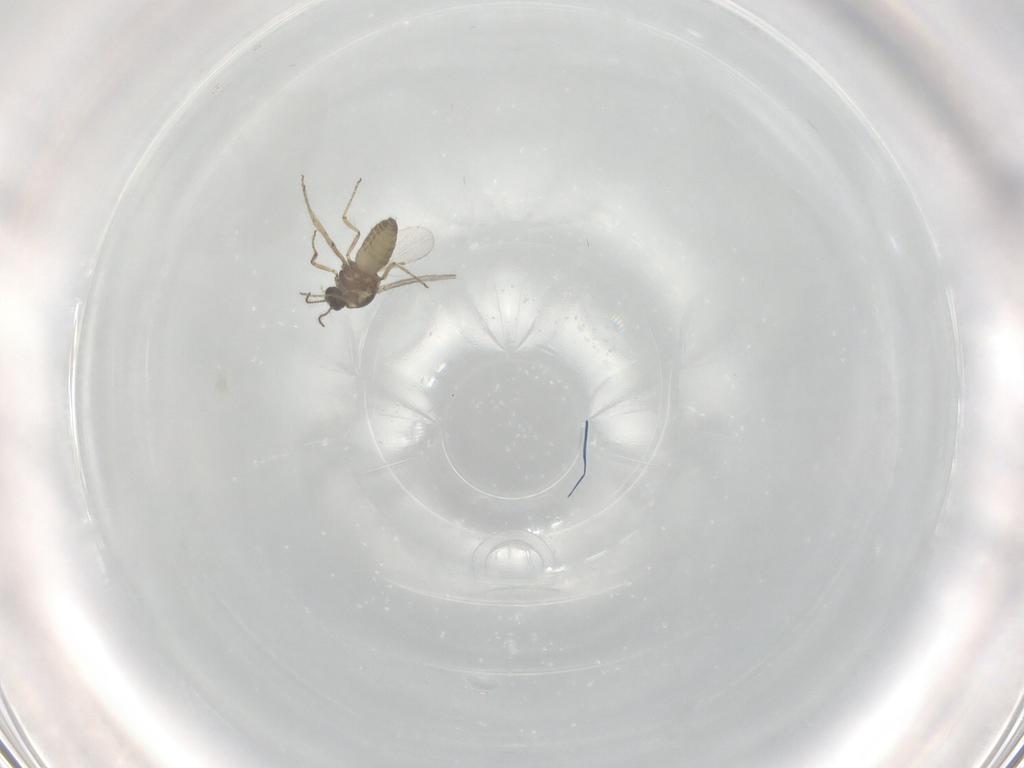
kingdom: Animalia
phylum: Arthropoda
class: Insecta
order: Diptera
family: Ceratopogonidae
